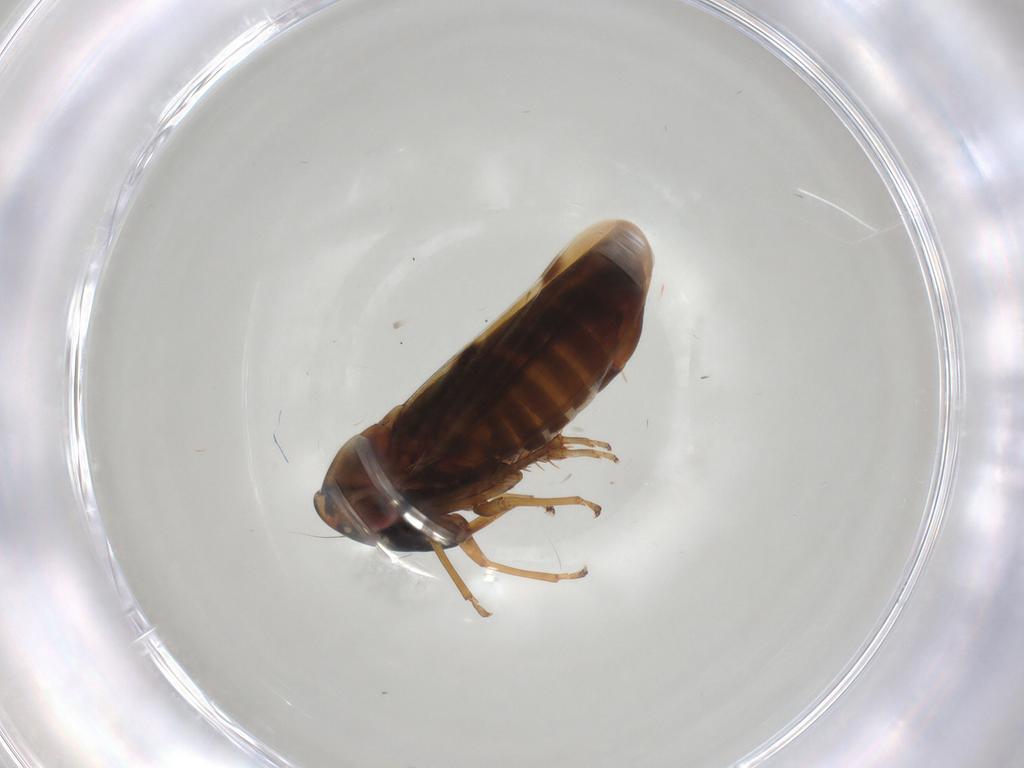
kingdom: Animalia
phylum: Arthropoda
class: Insecta
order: Hemiptera
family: Cicadellidae
